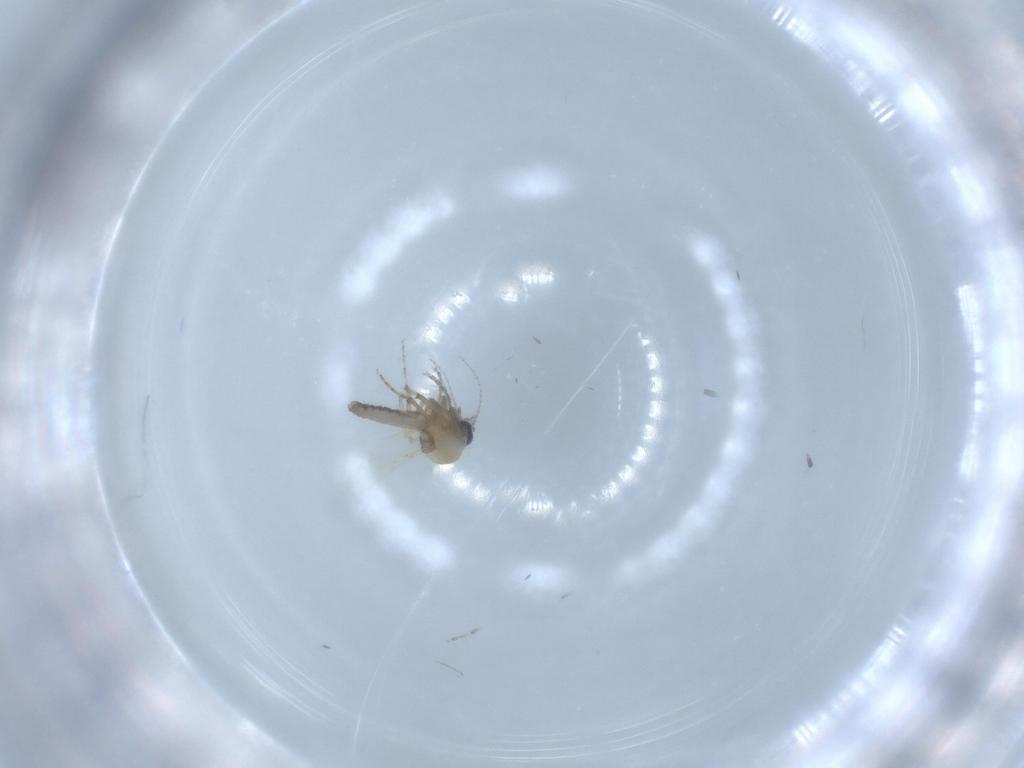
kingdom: Animalia
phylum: Arthropoda
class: Insecta
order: Diptera
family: Ceratopogonidae
